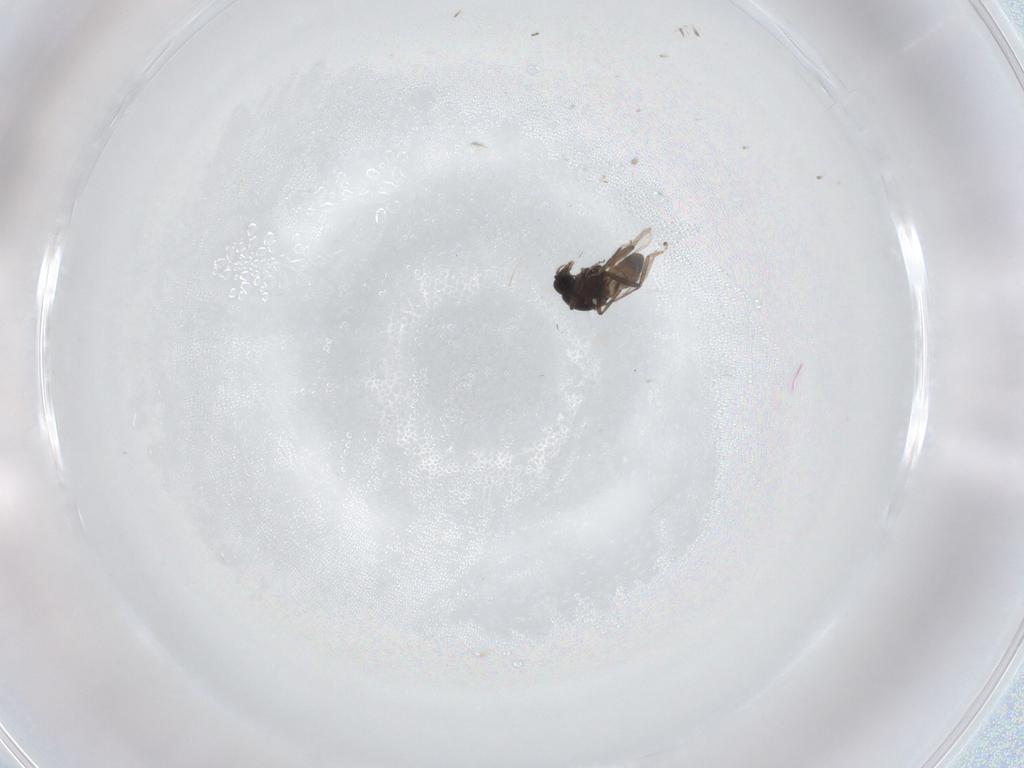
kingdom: Animalia
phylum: Arthropoda
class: Insecta
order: Diptera
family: Ceratopogonidae
